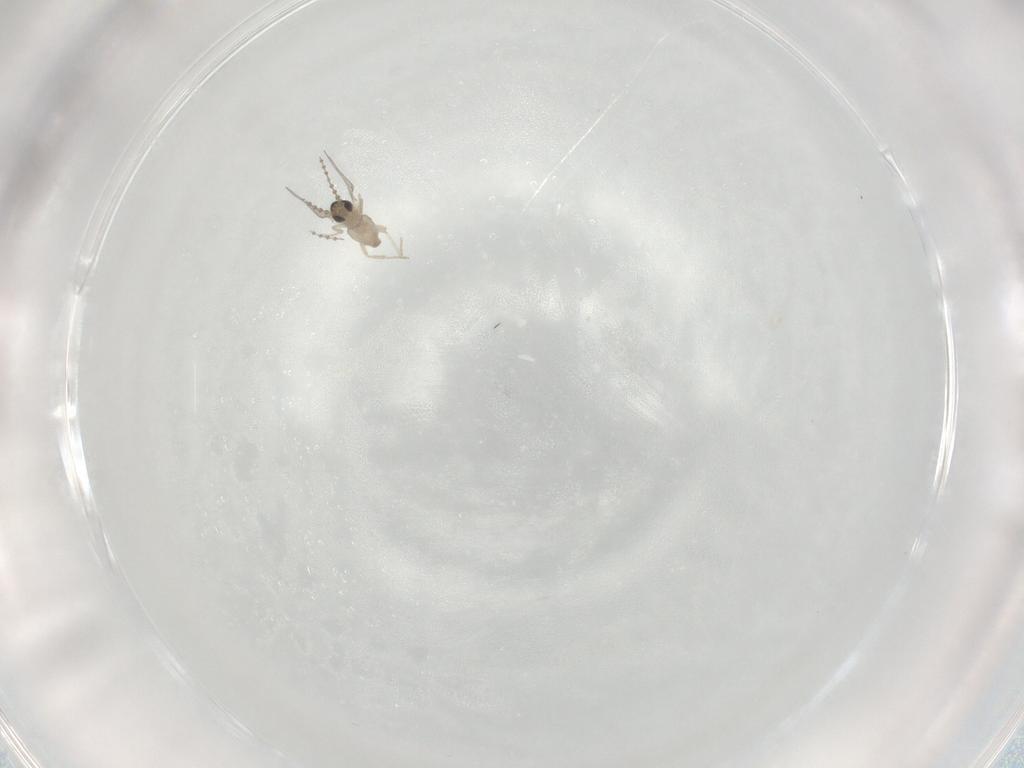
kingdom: Animalia
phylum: Arthropoda
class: Insecta
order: Diptera
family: Cecidomyiidae
